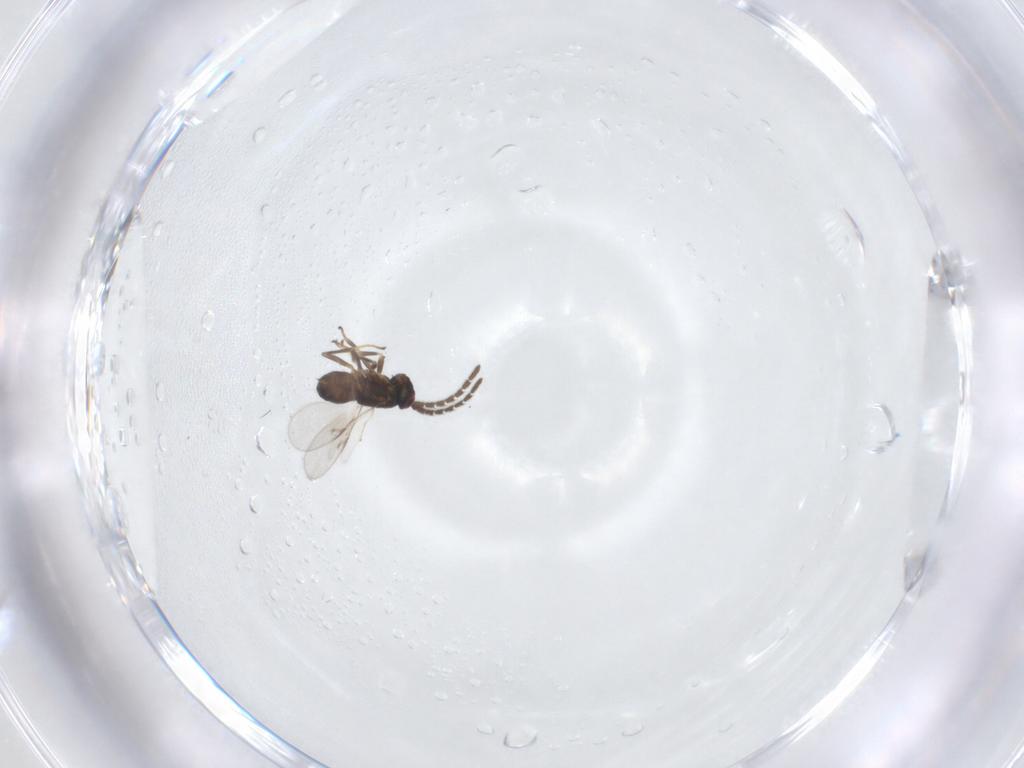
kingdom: Animalia
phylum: Arthropoda
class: Insecta
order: Hymenoptera
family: Encyrtidae
